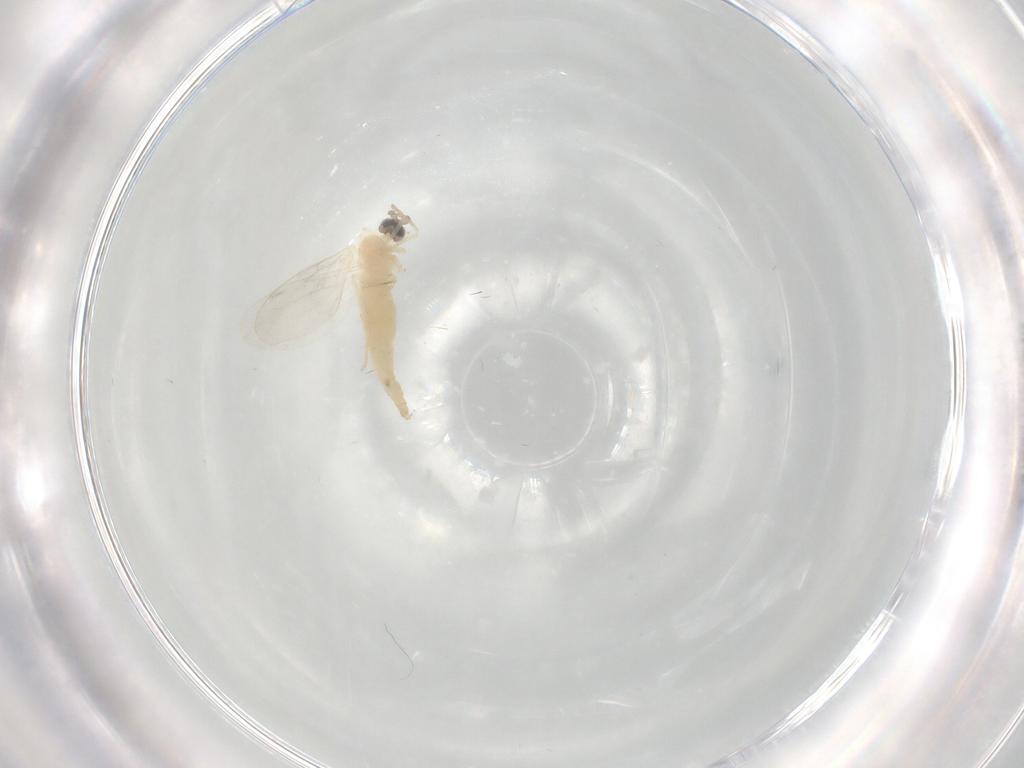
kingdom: Animalia
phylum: Arthropoda
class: Insecta
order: Diptera
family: Cecidomyiidae
